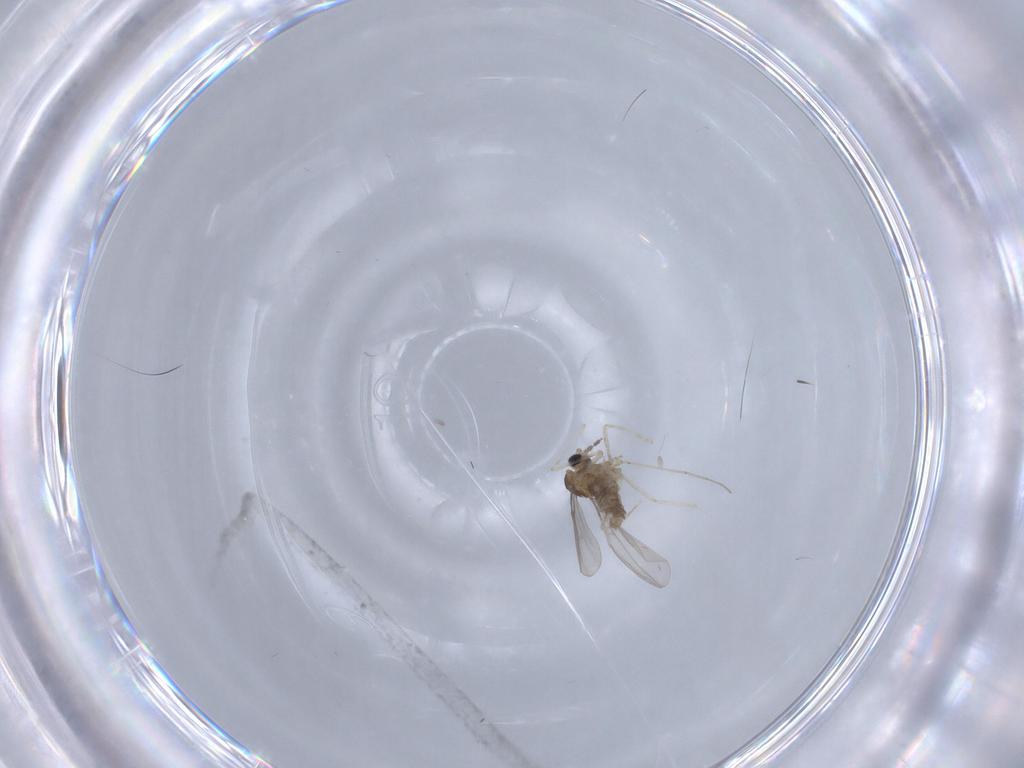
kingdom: Animalia
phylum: Arthropoda
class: Insecta
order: Diptera
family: Cecidomyiidae
